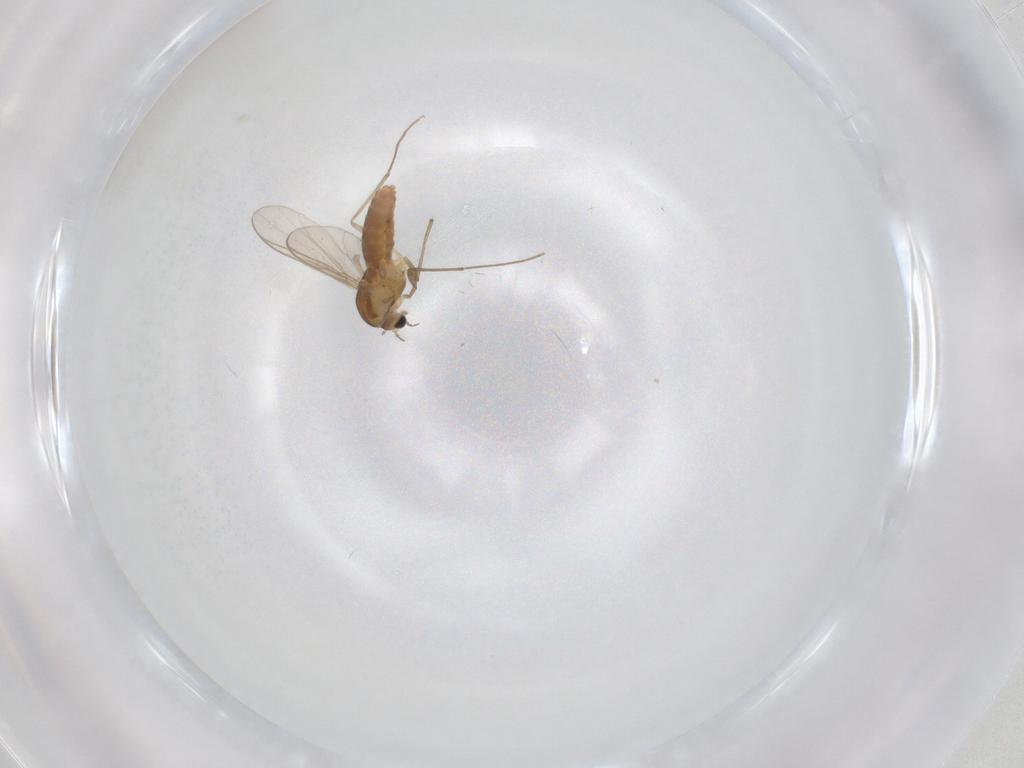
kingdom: Animalia
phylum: Arthropoda
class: Insecta
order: Diptera
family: Chironomidae
